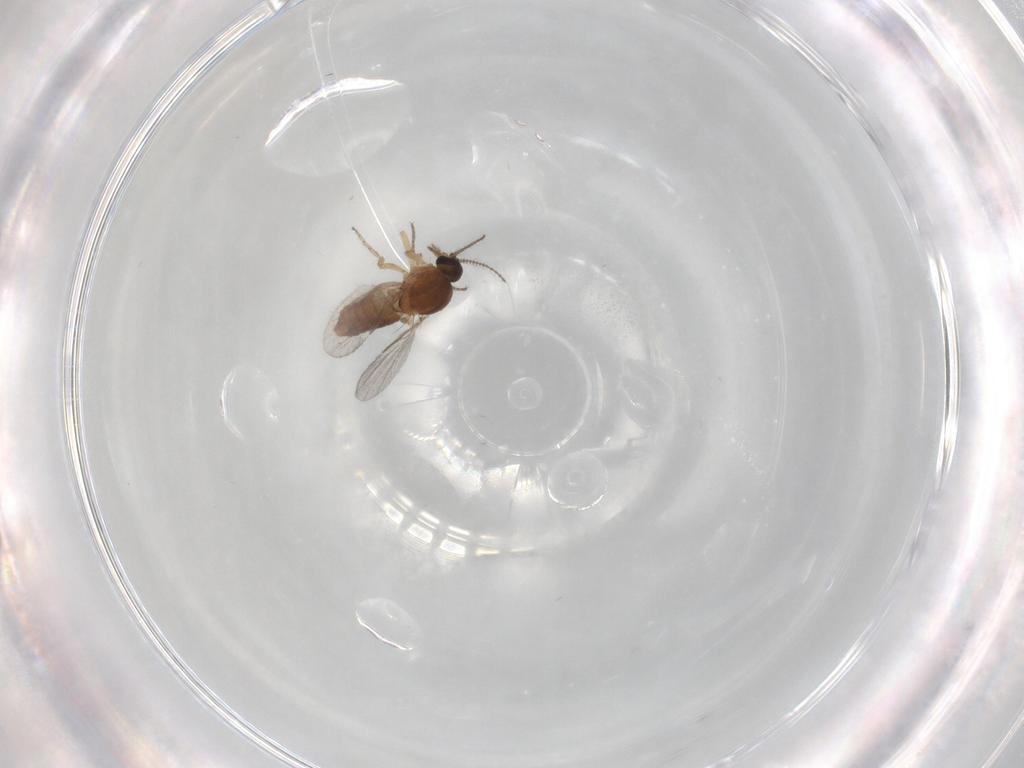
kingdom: Animalia
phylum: Arthropoda
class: Insecta
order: Diptera
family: Ceratopogonidae
